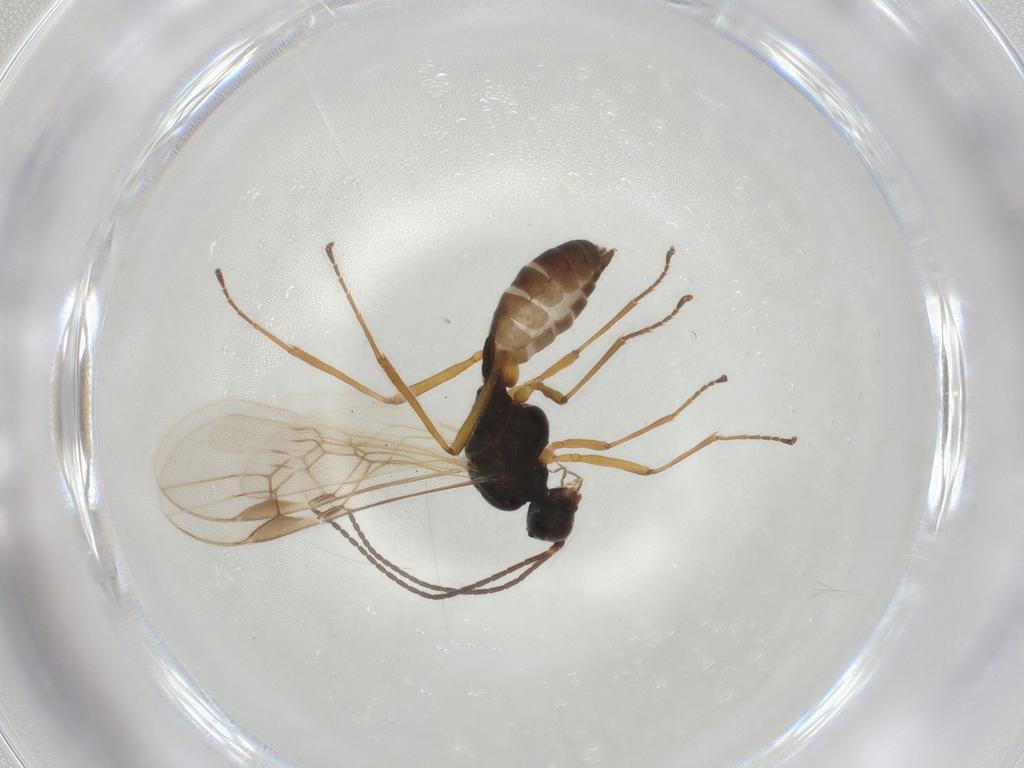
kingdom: Animalia
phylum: Arthropoda
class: Insecta
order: Hymenoptera
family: Braconidae
